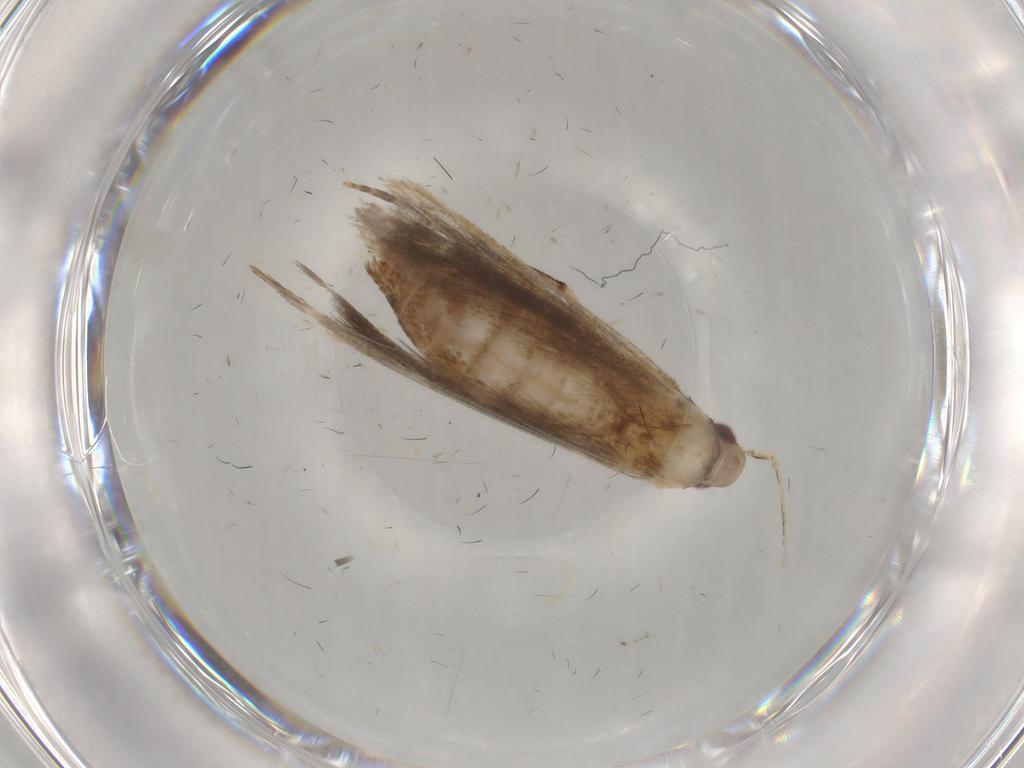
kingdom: Animalia
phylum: Arthropoda
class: Insecta
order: Lepidoptera
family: Gelechiidae
